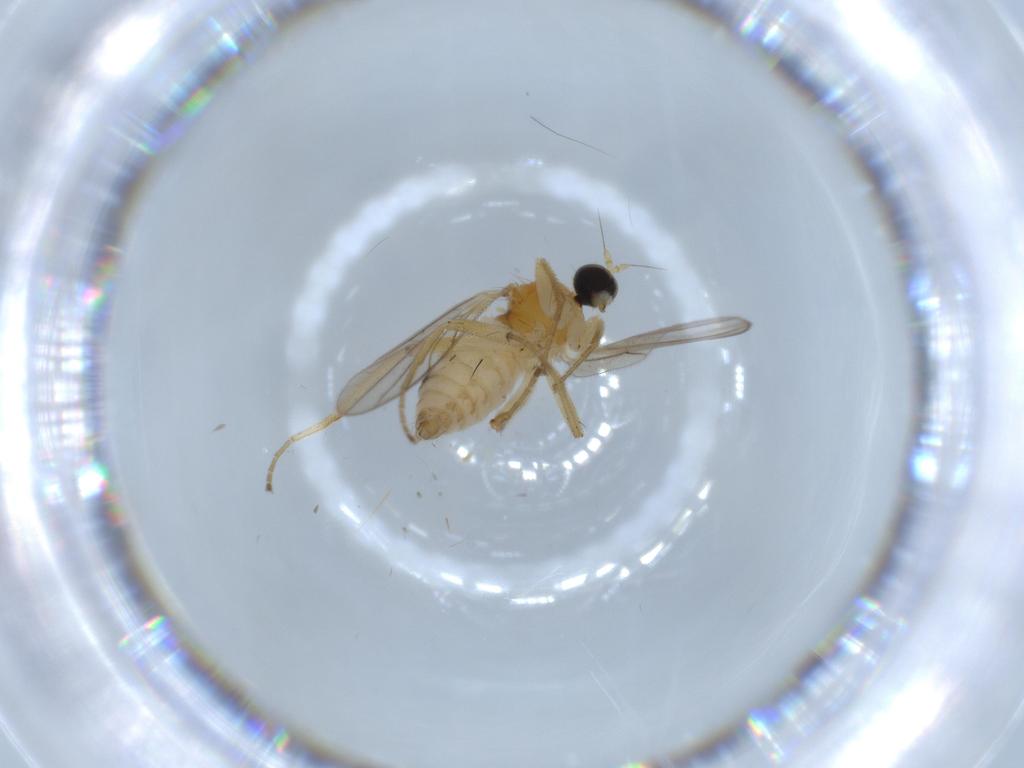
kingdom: Animalia
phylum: Arthropoda
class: Insecta
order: Diptera
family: Hybotidae
